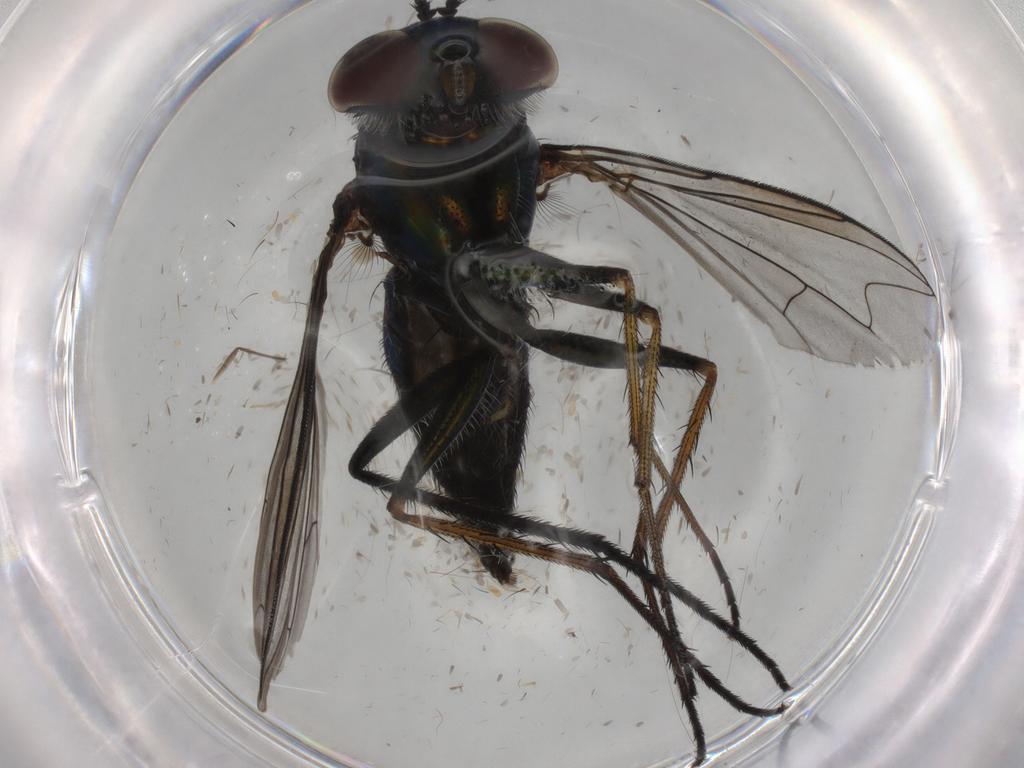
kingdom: Animalia
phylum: Arthropoda
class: Insecta
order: Diptera
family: Dolichopodidae
